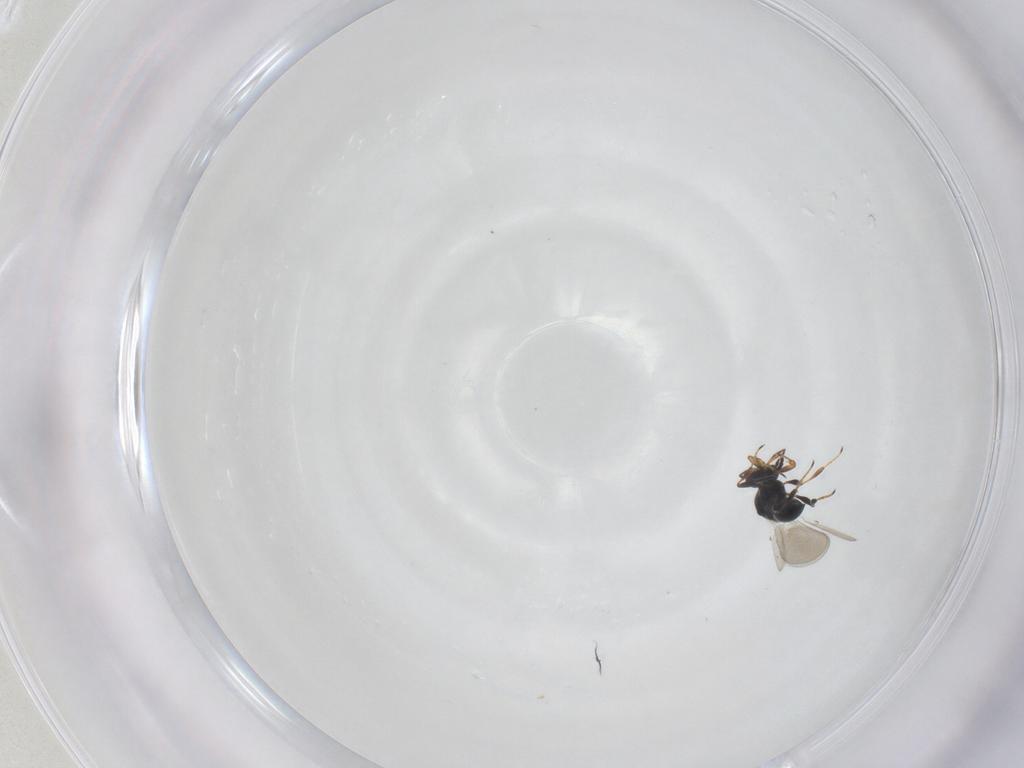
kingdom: Animalia
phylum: Arthropoda
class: Insecta
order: Hymenoptera
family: Platygastridae
